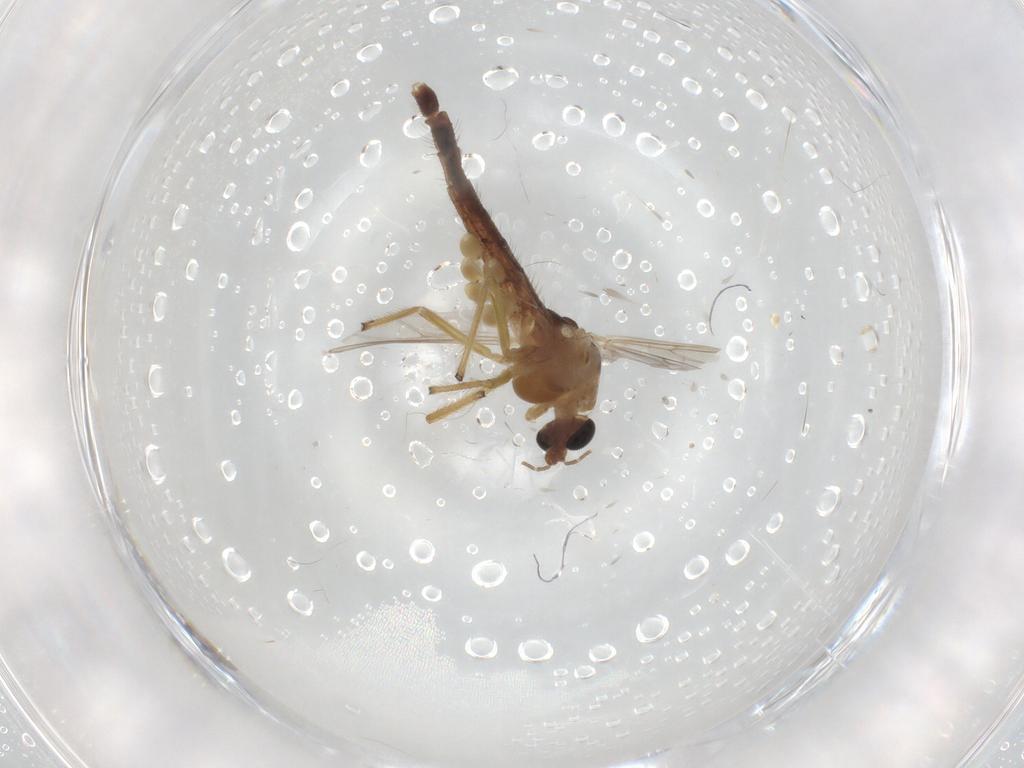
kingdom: Animalia
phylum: Arthropoda
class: Insecta
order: Diptera
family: Chironomidae
